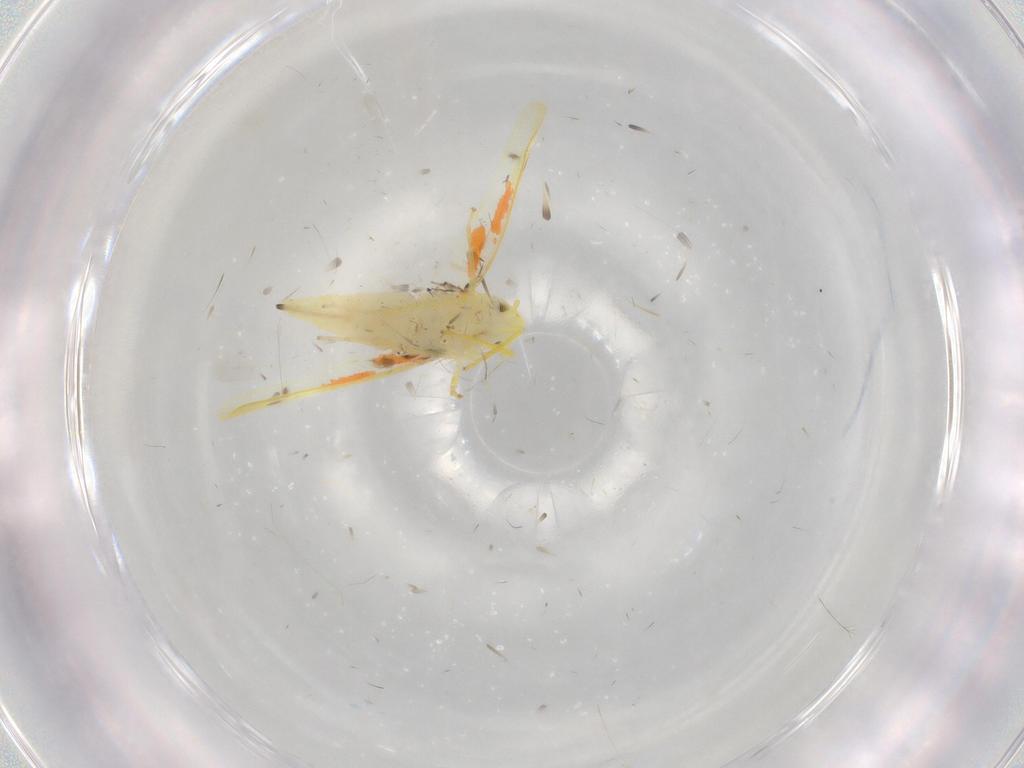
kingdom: Animalia
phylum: Arthropoda
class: Insecta
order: Hemiptera
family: Cicadellidae
